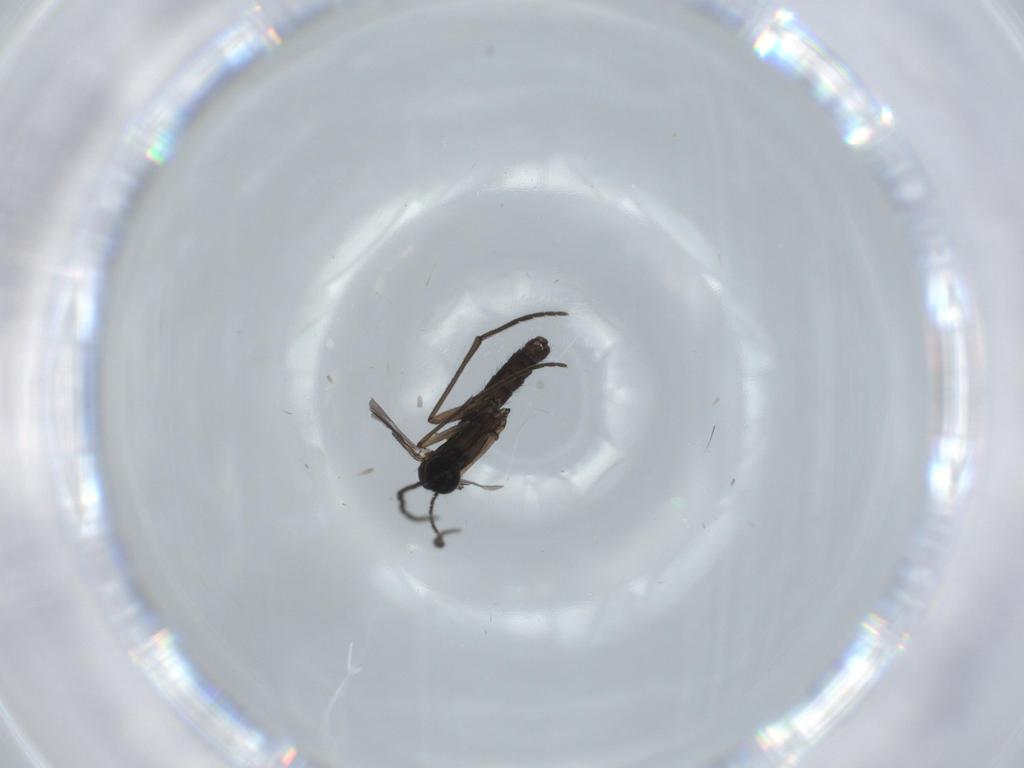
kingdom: Animalia
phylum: Arthropoda
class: Insecta
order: Diptera
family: Sciaridae
